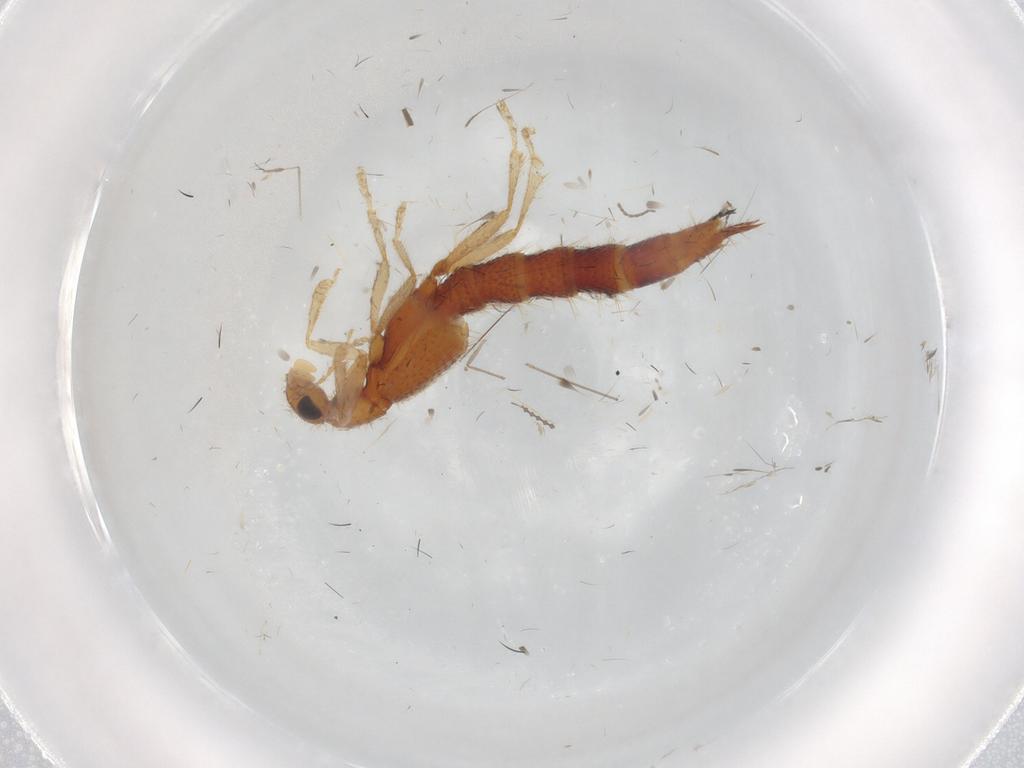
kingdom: Animalia
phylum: Arthropoda
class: Insecta
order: Coleoptera
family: Staphylinidae
